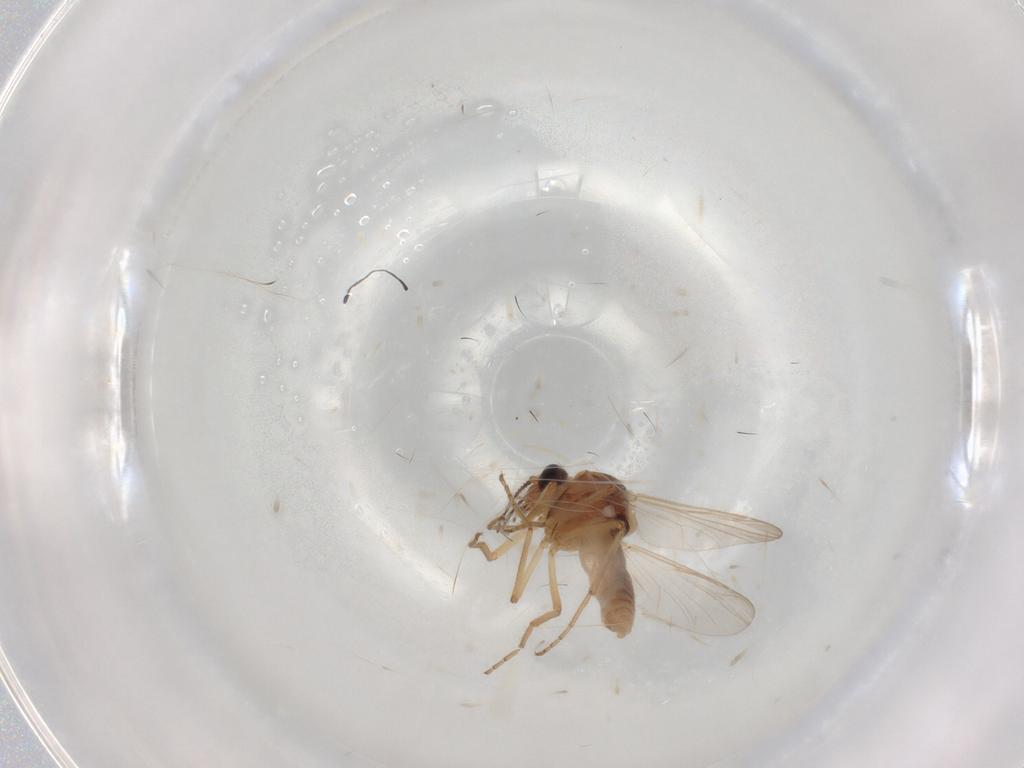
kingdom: Animalia
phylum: Arthropoda
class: Insecta
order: Diptera
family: Ceratopogonidae
